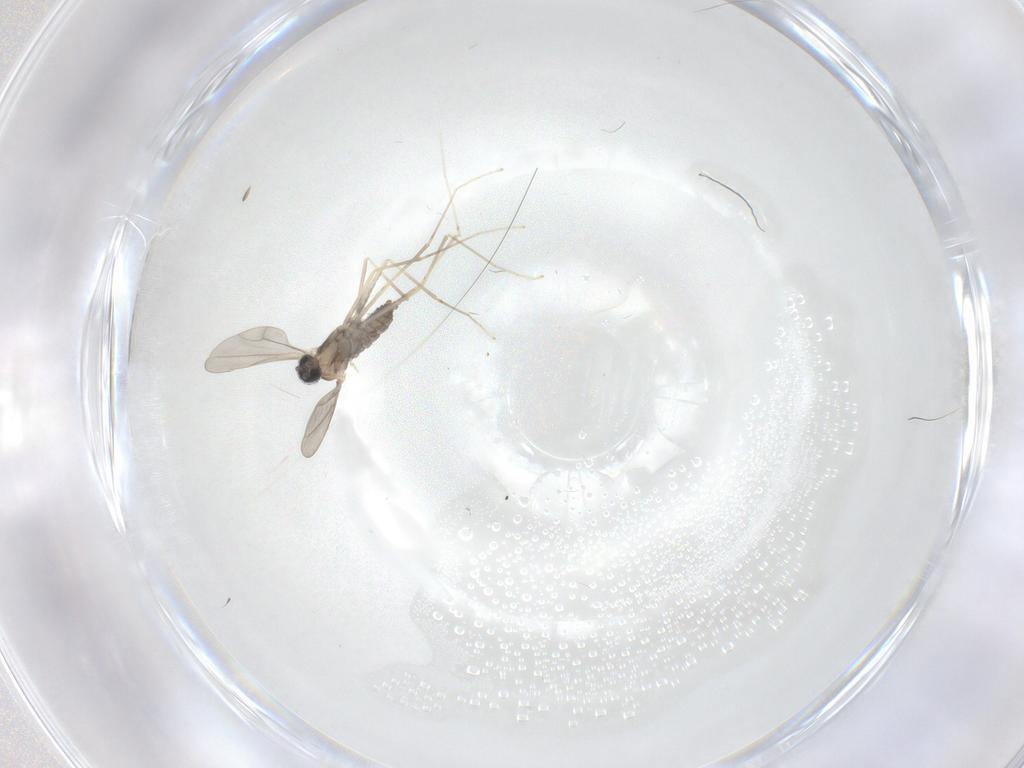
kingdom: Animalia
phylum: Arthropoda
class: Insecta
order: Diptera
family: Cecidomyiidae
